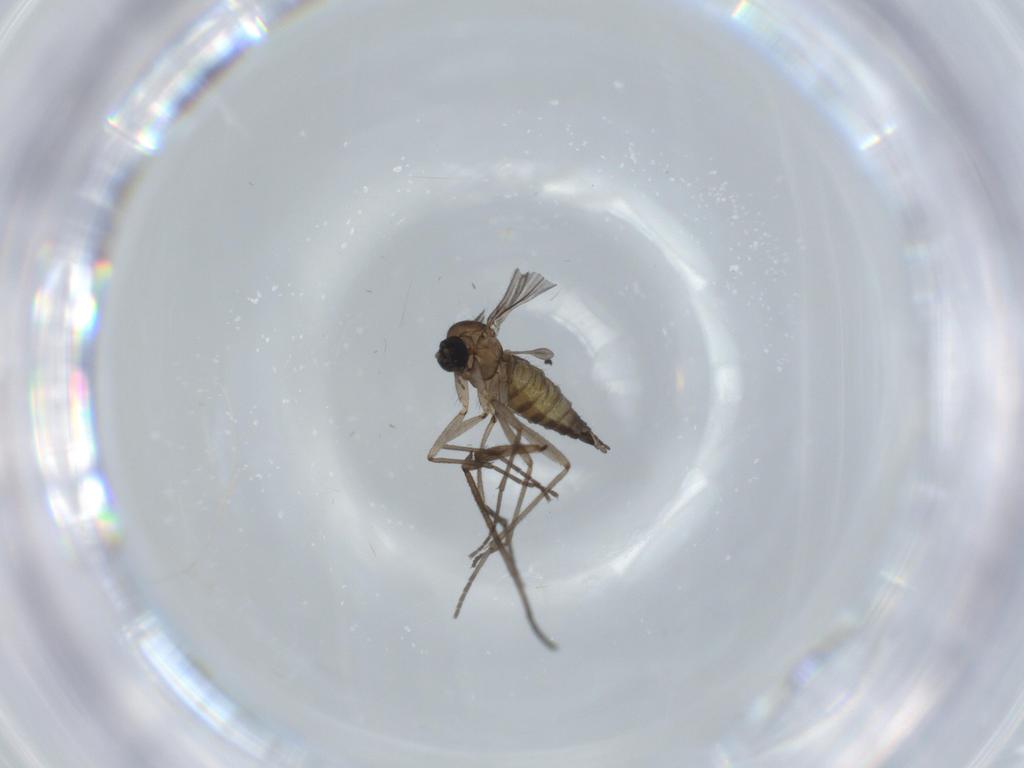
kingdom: Animalia
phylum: Arthropoda
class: Insecta
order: Diptera
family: Sciaridae
